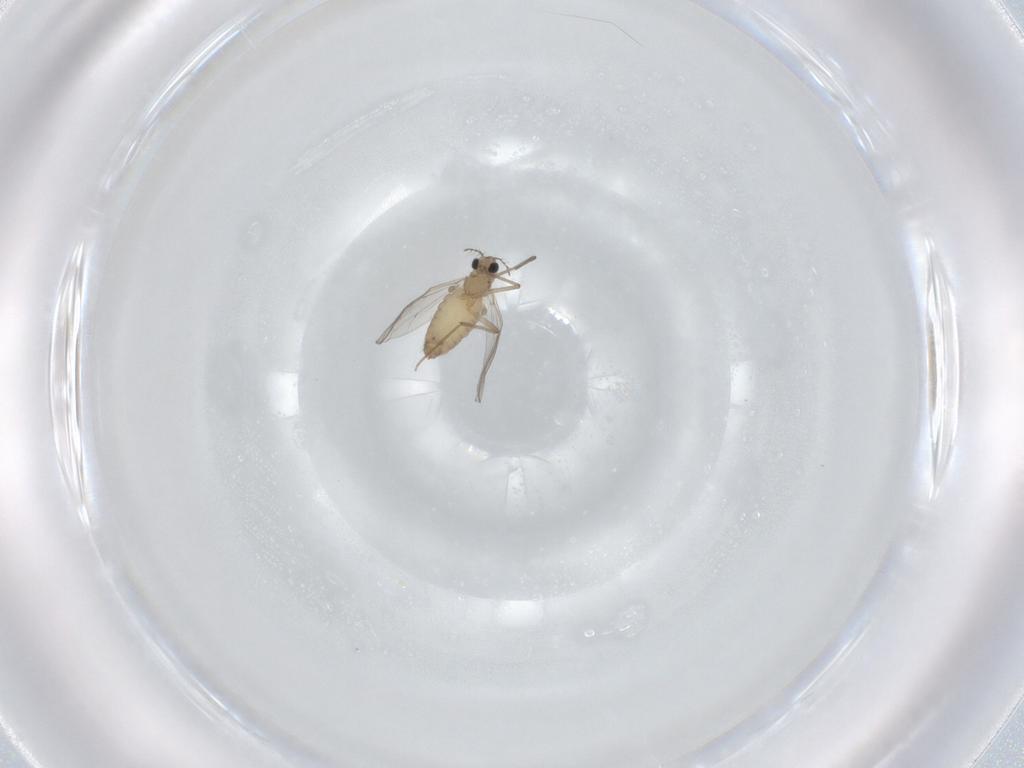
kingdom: Animalia
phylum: Arthropoda
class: Insecta
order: Diptera
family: Chironomidae
